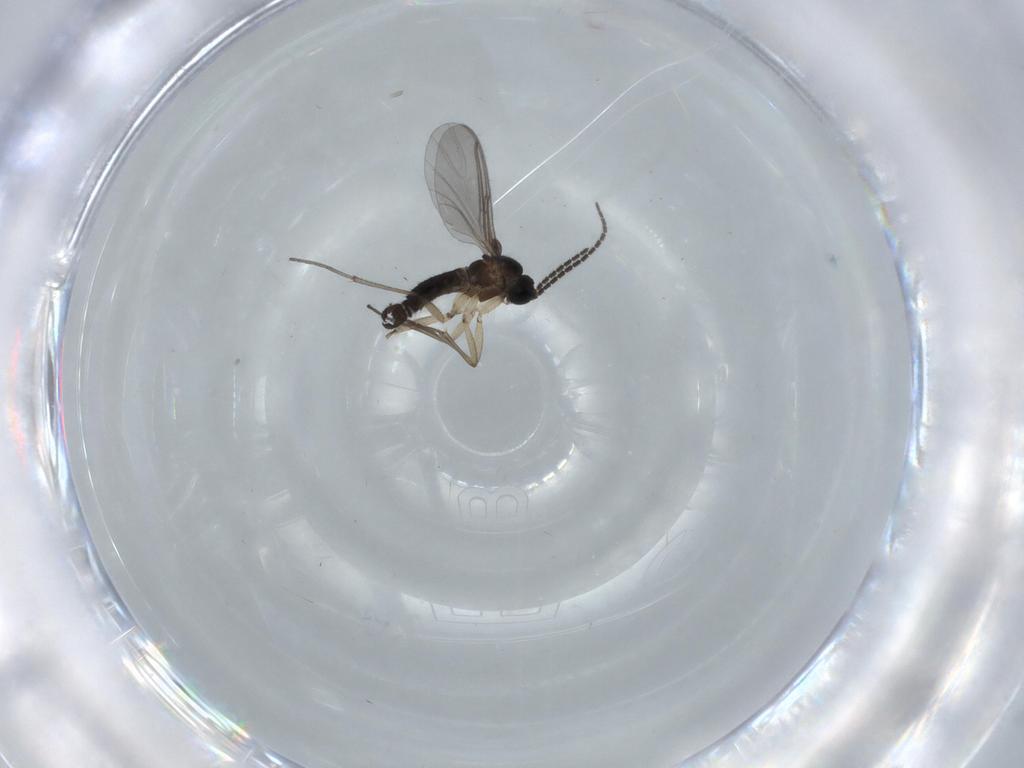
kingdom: Animalia
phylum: Arthropoda
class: Insecta
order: Diptera
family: Sciaridae
